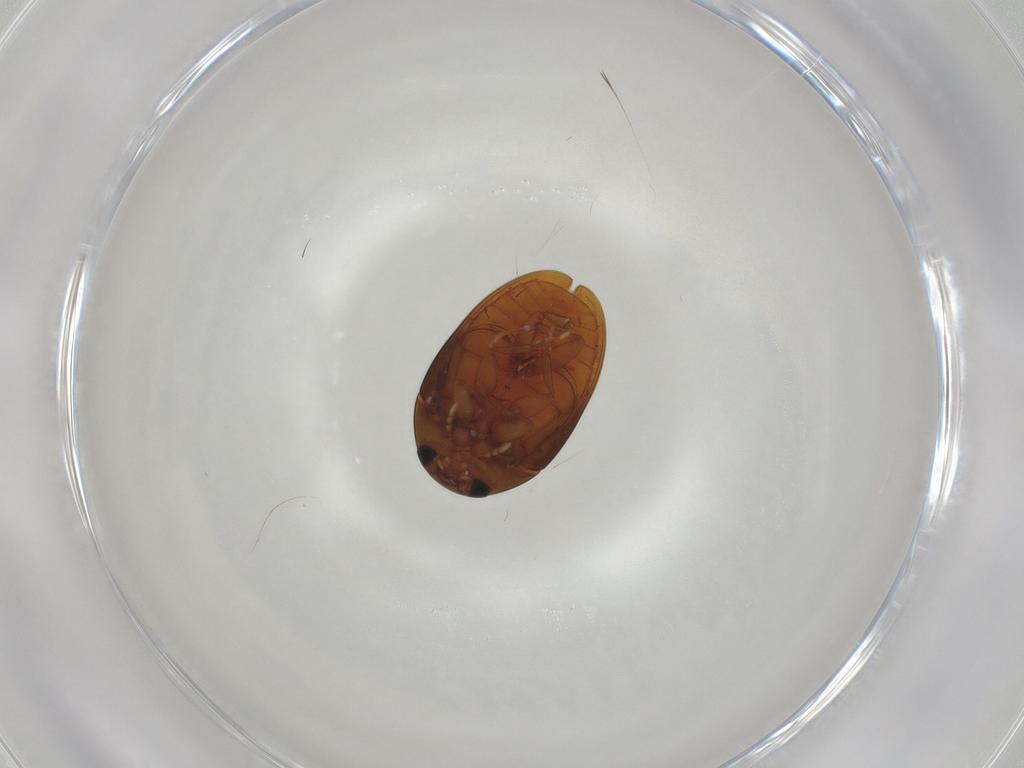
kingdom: Animalia
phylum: Arthropoda
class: Insecta
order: Coleoptera
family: Phalacridae
